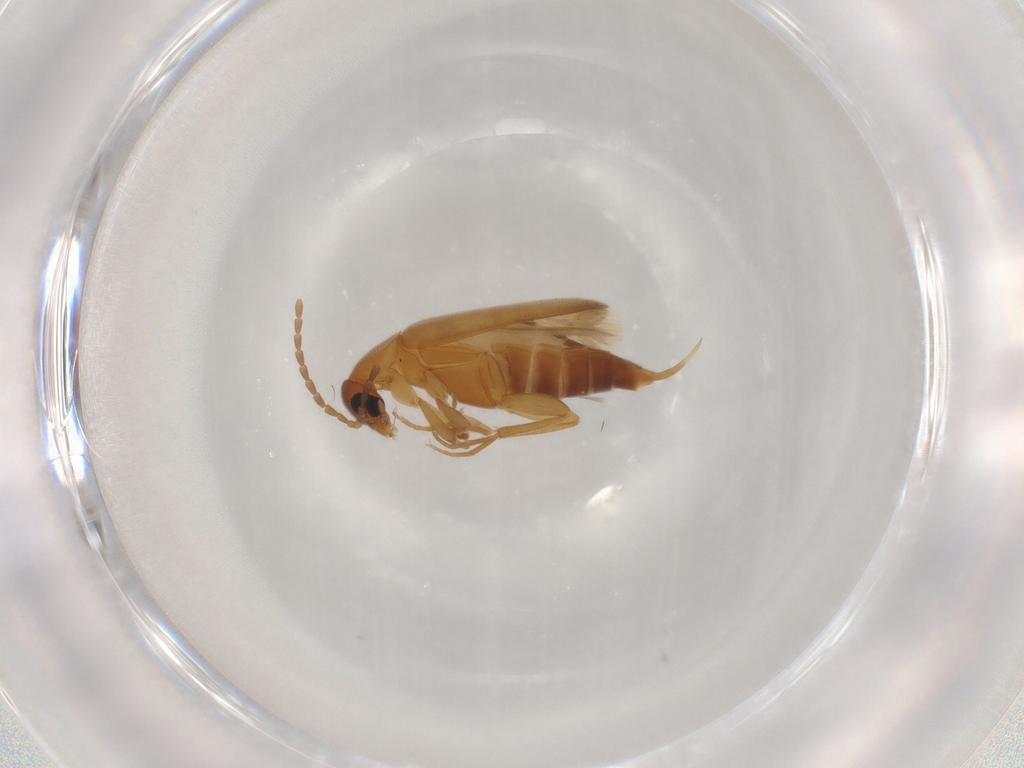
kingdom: Animalia
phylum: Arthropoda
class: Insecta
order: Coleoptera
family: Scraptiidae
